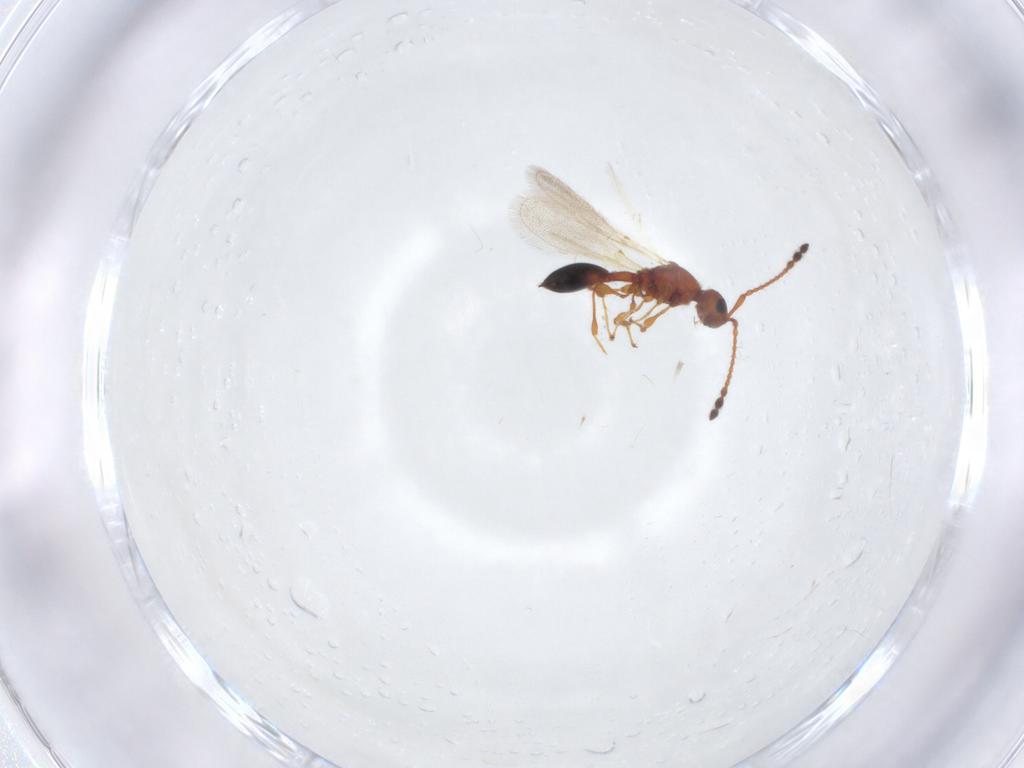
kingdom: Animalia
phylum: Arthropoda
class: Insecta
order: Hymenoptera
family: Diapriidae
